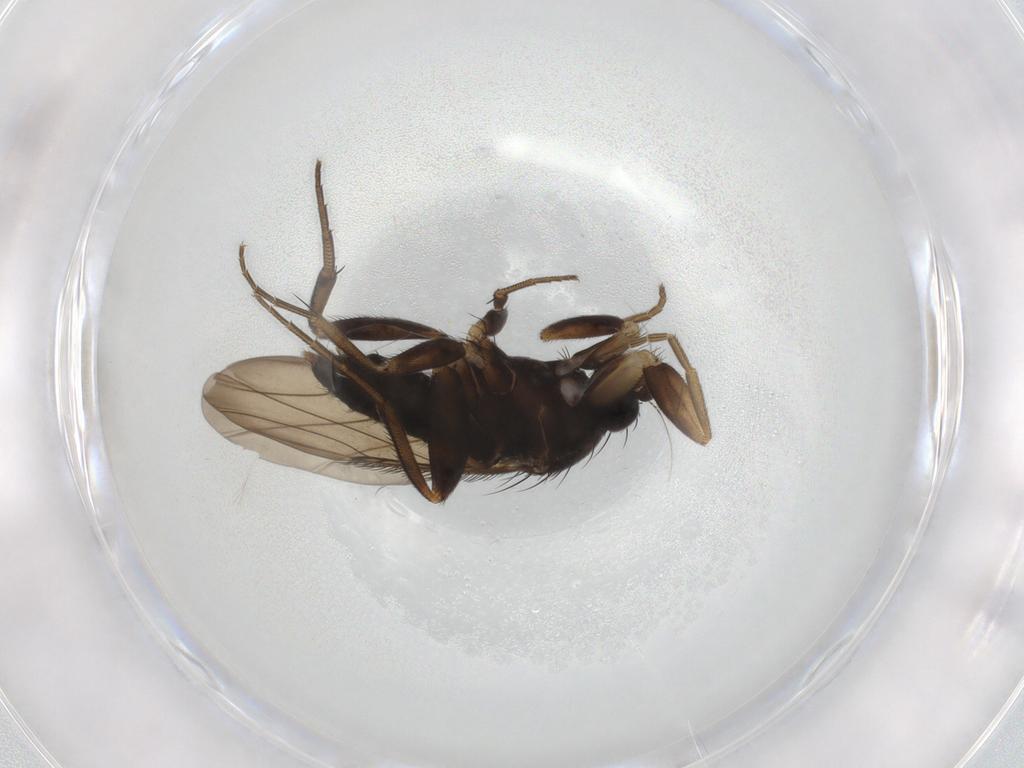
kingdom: Animalia
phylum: Arthropoda
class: Insecta
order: Diptera
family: Phoridae
